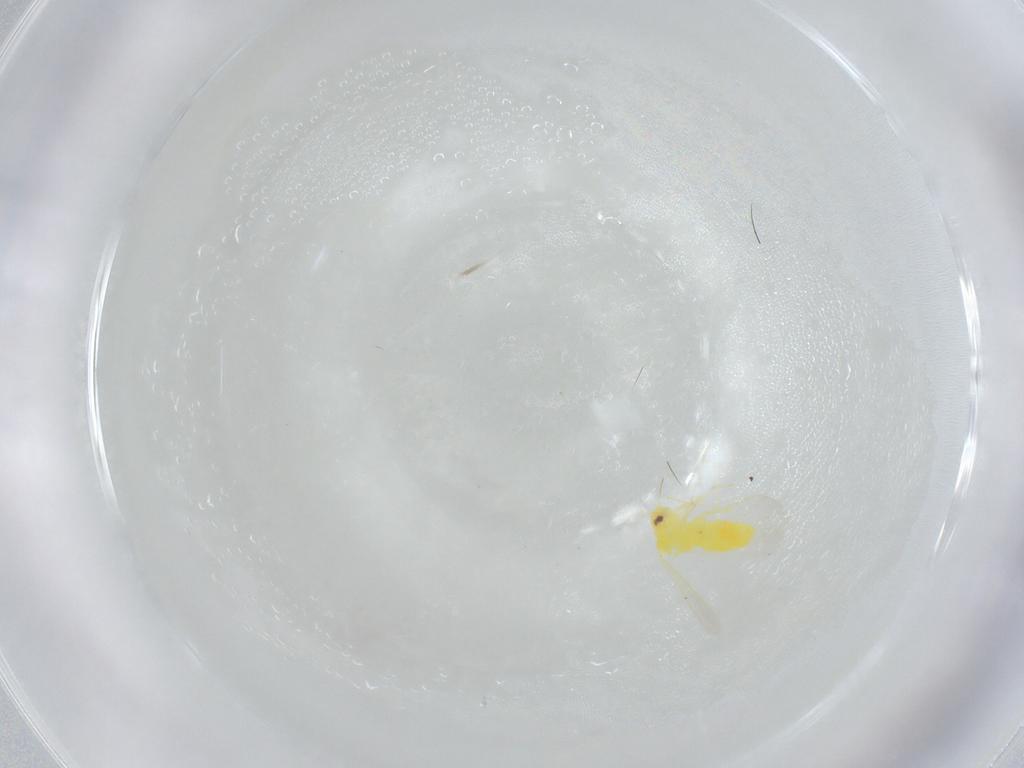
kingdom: Animalia
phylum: Arthropoda
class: Insecta
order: Hemiptera
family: Aleyrodidae
